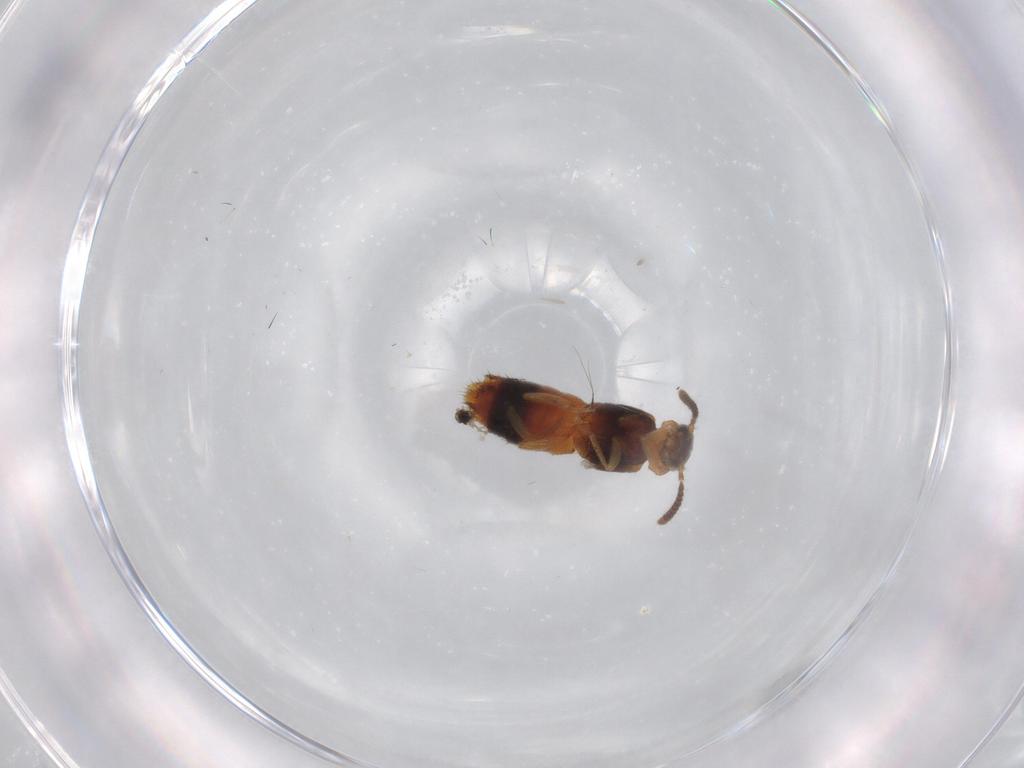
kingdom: Animalia
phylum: Arthropoda
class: Insecta
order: Coleoptera
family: Staphylinidae
